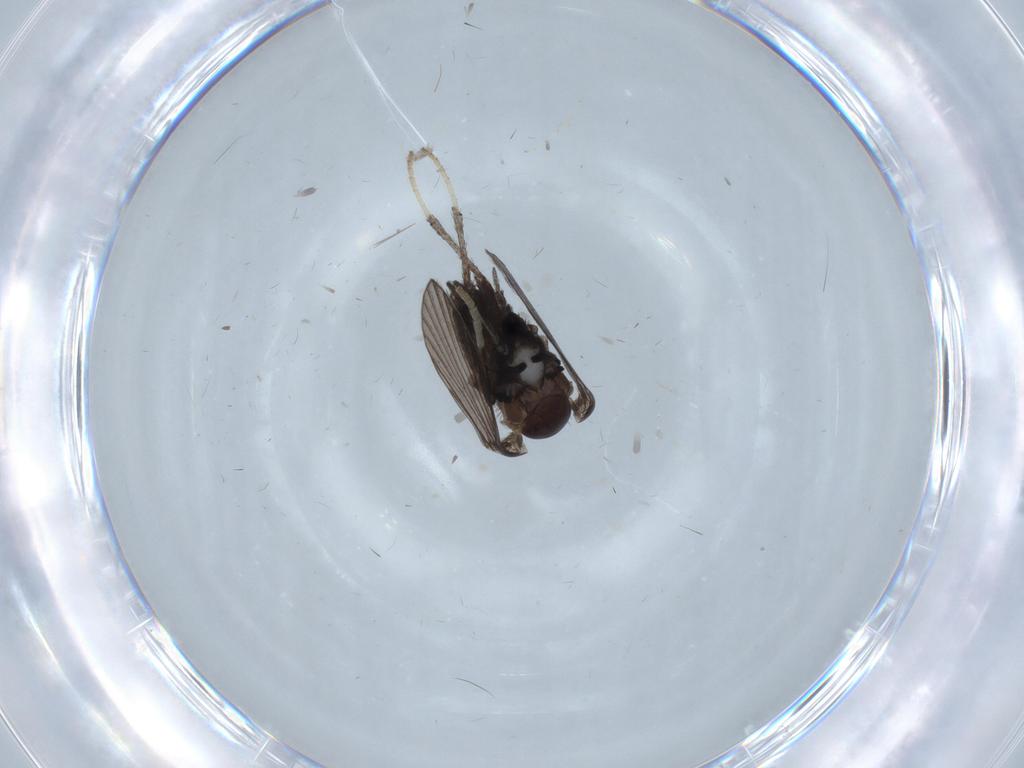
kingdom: Animalia
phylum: Arthropoda
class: Insecta
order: Diptera
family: Psychodidae
